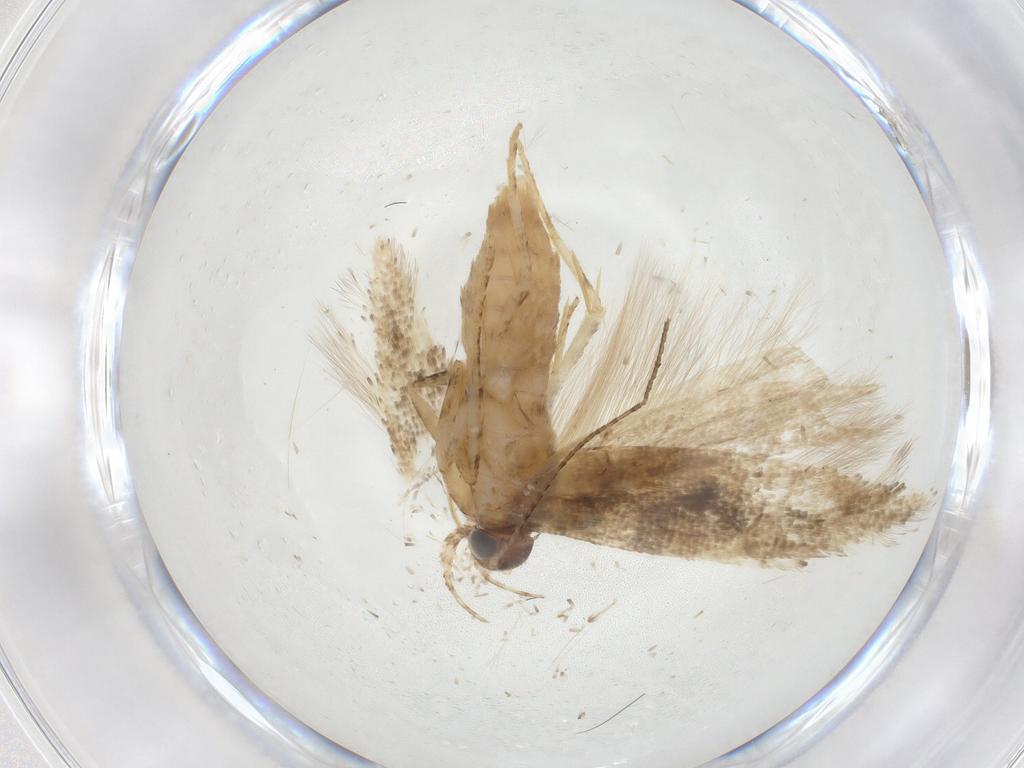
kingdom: Animalia
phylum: Arthropoda
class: Insecta
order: Lepidoptera
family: Gelechiidae
